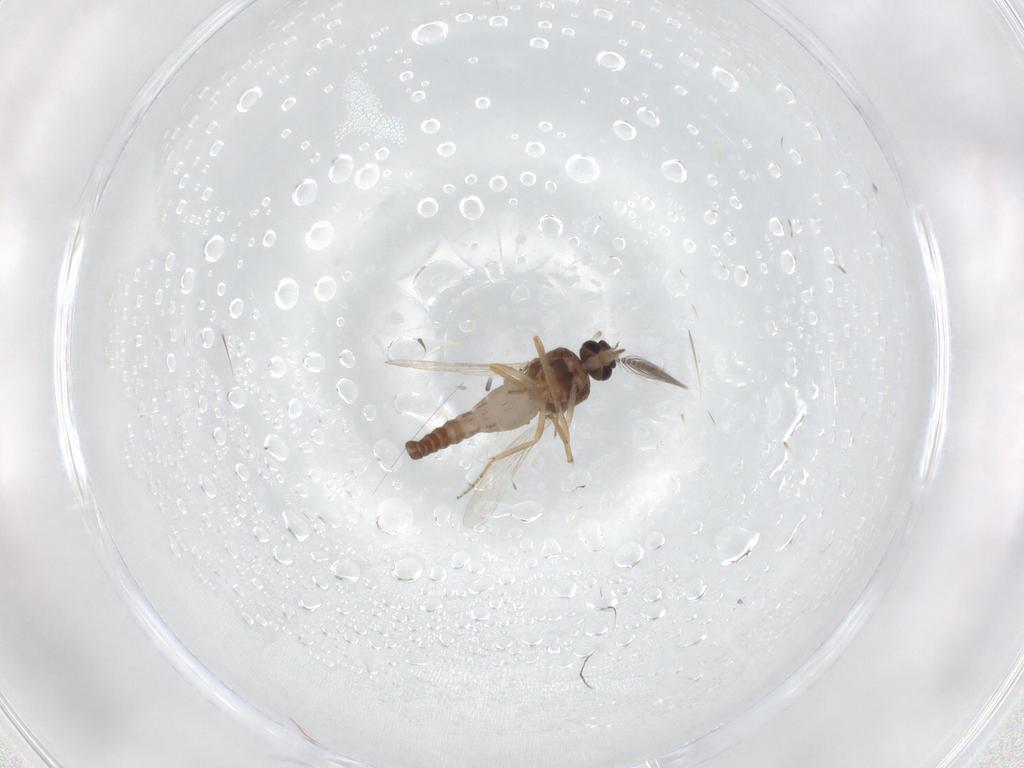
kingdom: Animalia
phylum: Arthropoda
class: Insecta
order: Diptera
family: Ceratopogonidae
